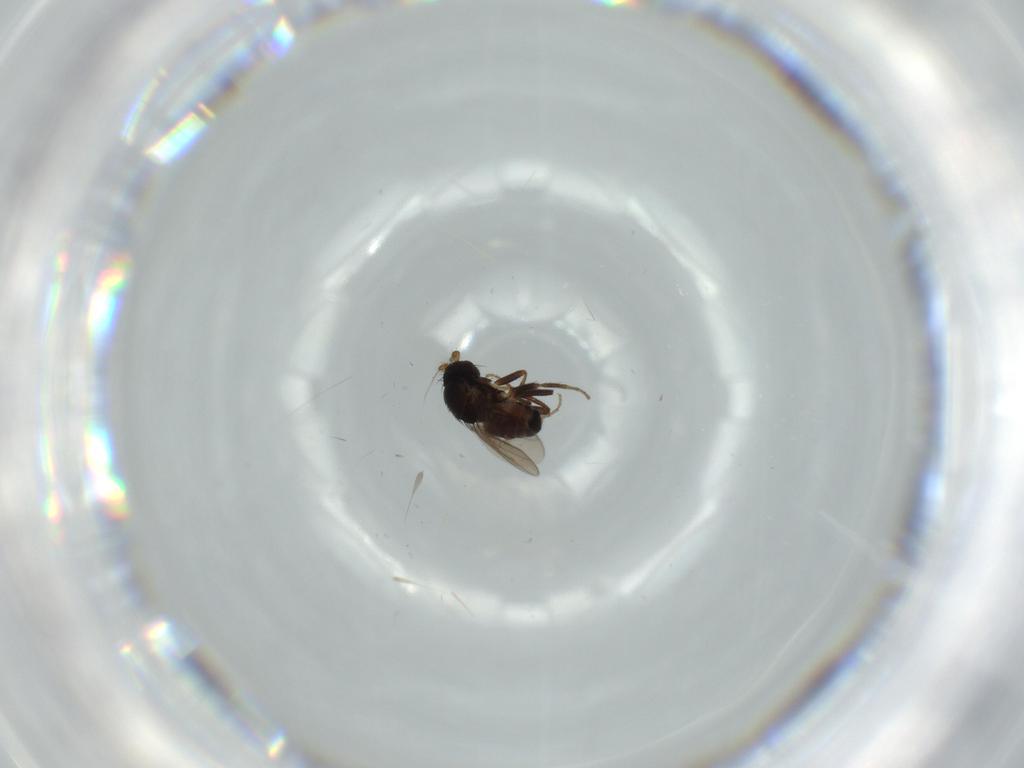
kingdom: Animalia
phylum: Arthropoda
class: Insecta
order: Diptera
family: Sphaeroceridae
